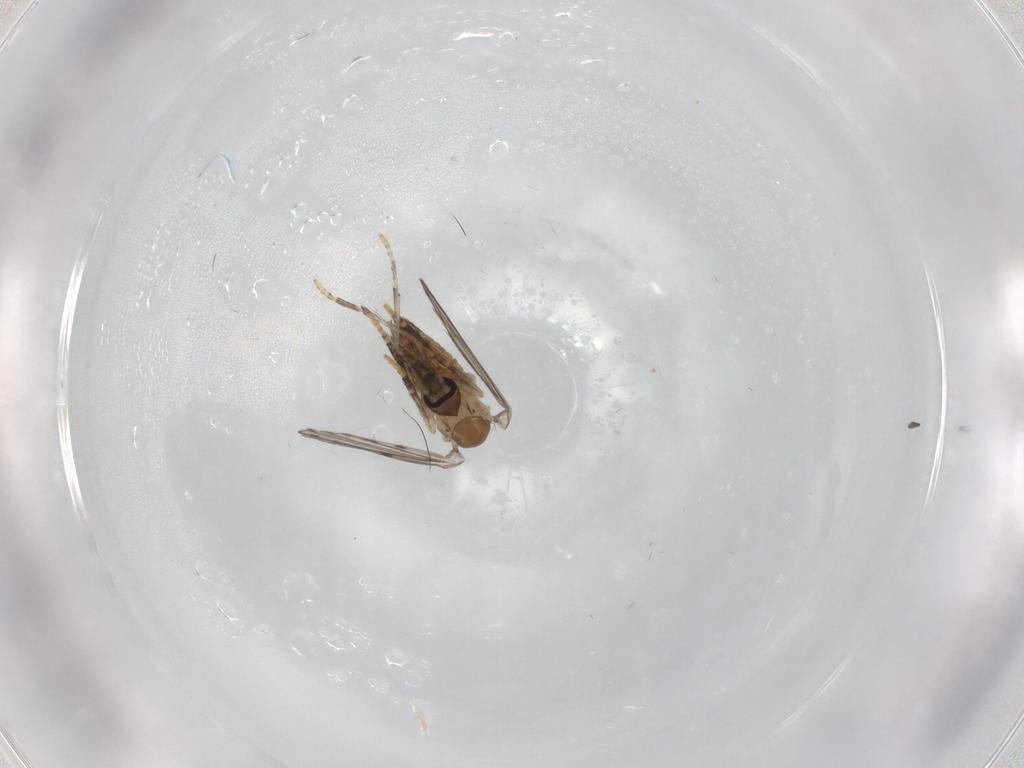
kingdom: Animalia
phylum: Arthropoda
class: Insecta
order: Diptera
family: Psychodidae
